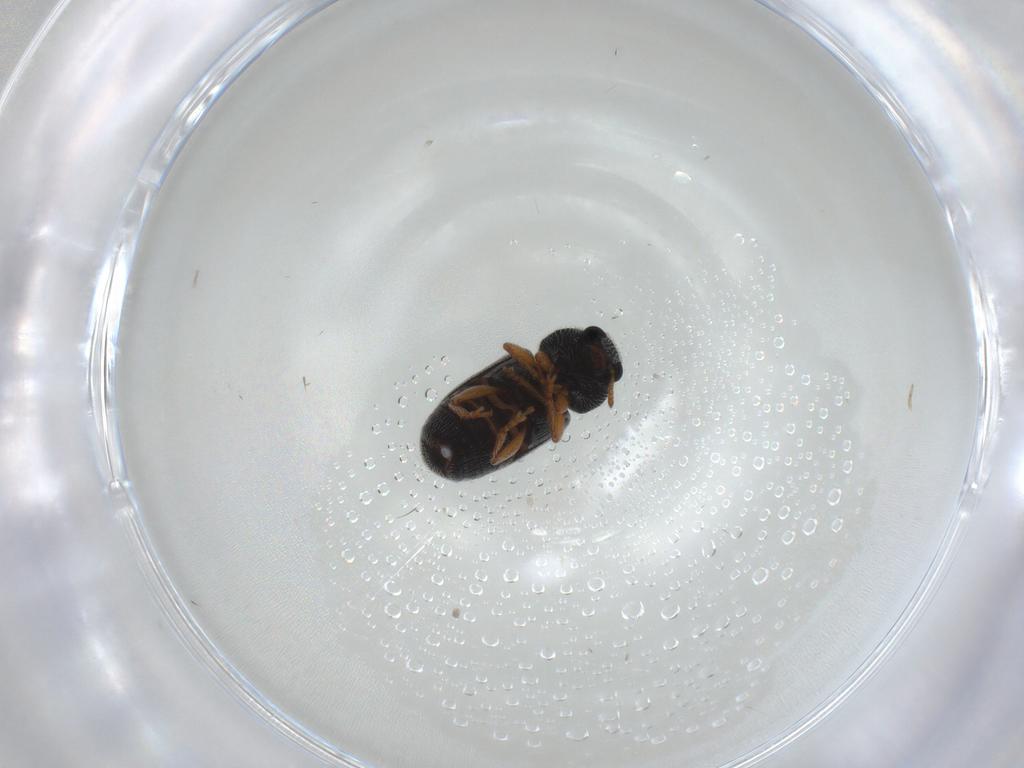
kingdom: Animalia
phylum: Arthropoda
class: Insecta
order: Coleoptera
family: Anthribidae
